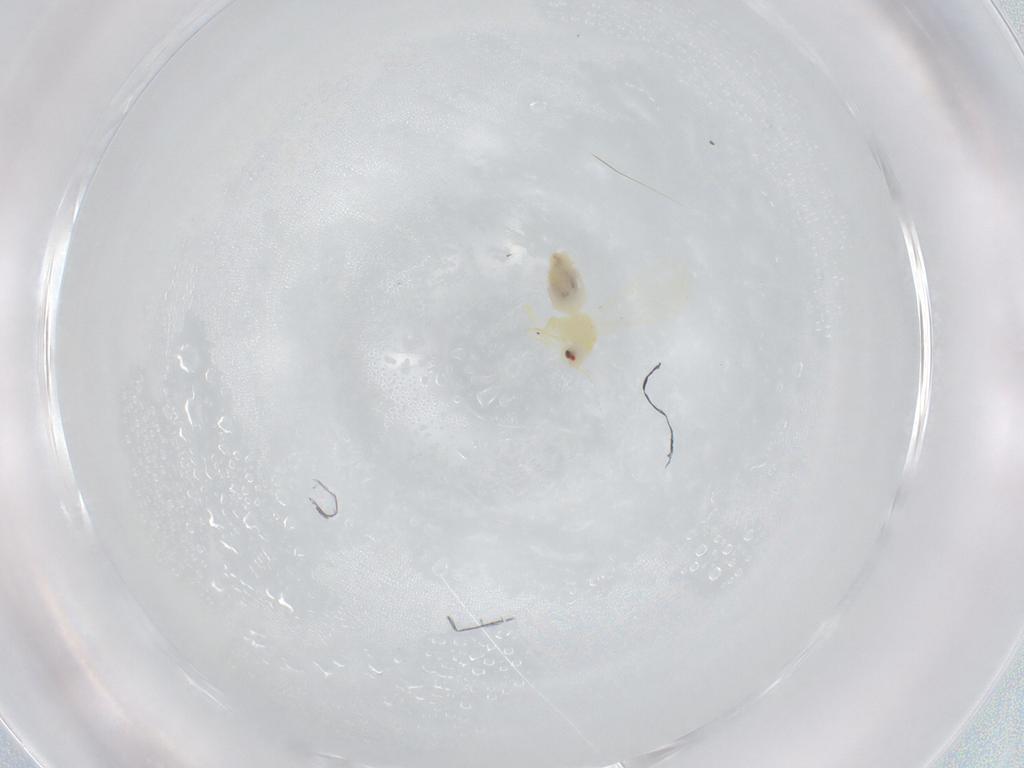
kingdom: Animalia
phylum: Arthropoda
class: Insecta
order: Hemiptera
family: Aleyrodidae
